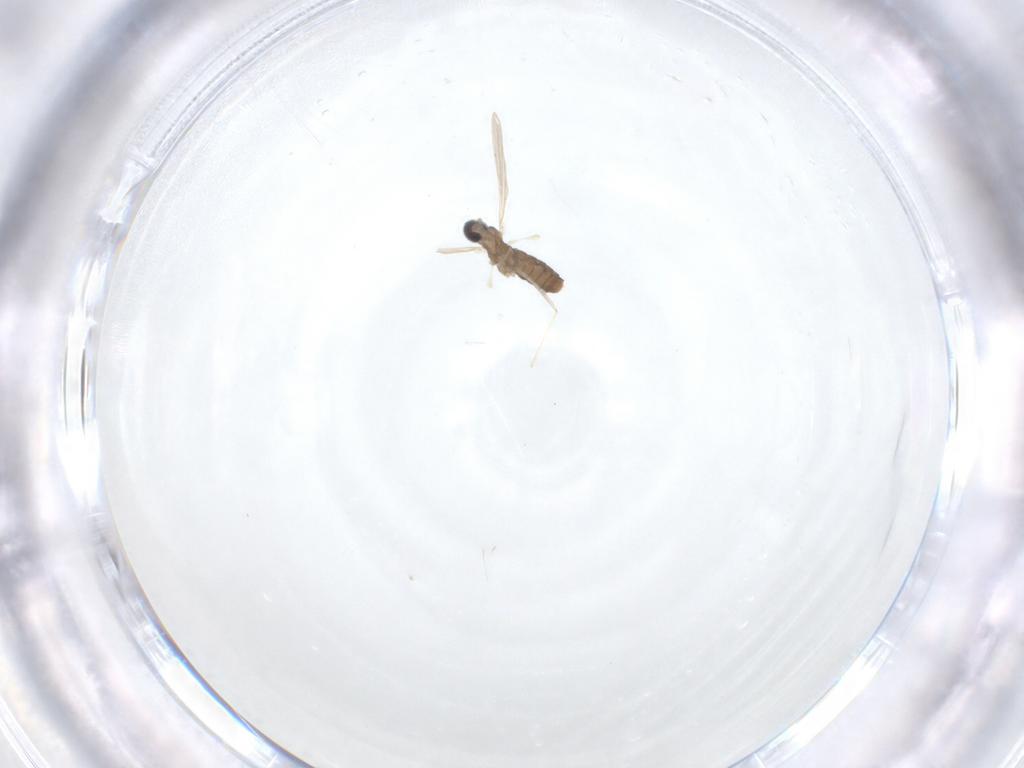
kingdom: Animalia
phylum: Arthropoda
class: Insecta
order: Diptera
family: Cecidomyiidae
